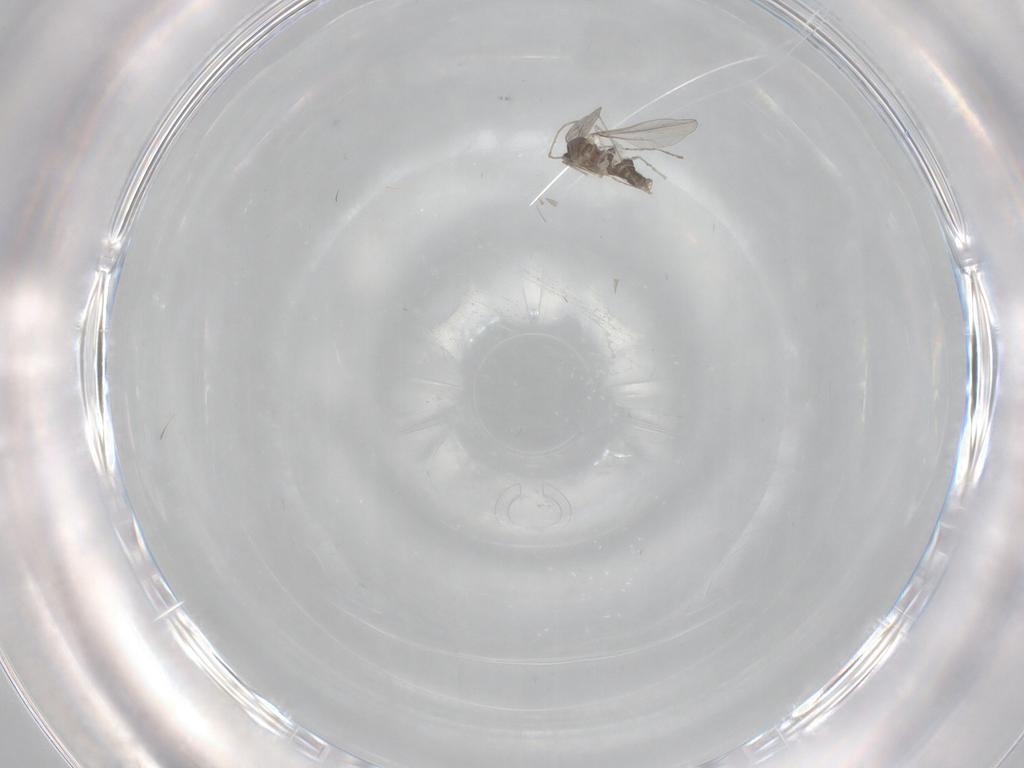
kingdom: Animalia
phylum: Arthropoda
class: Insecta
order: Diptera
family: Cecidomyiidae
